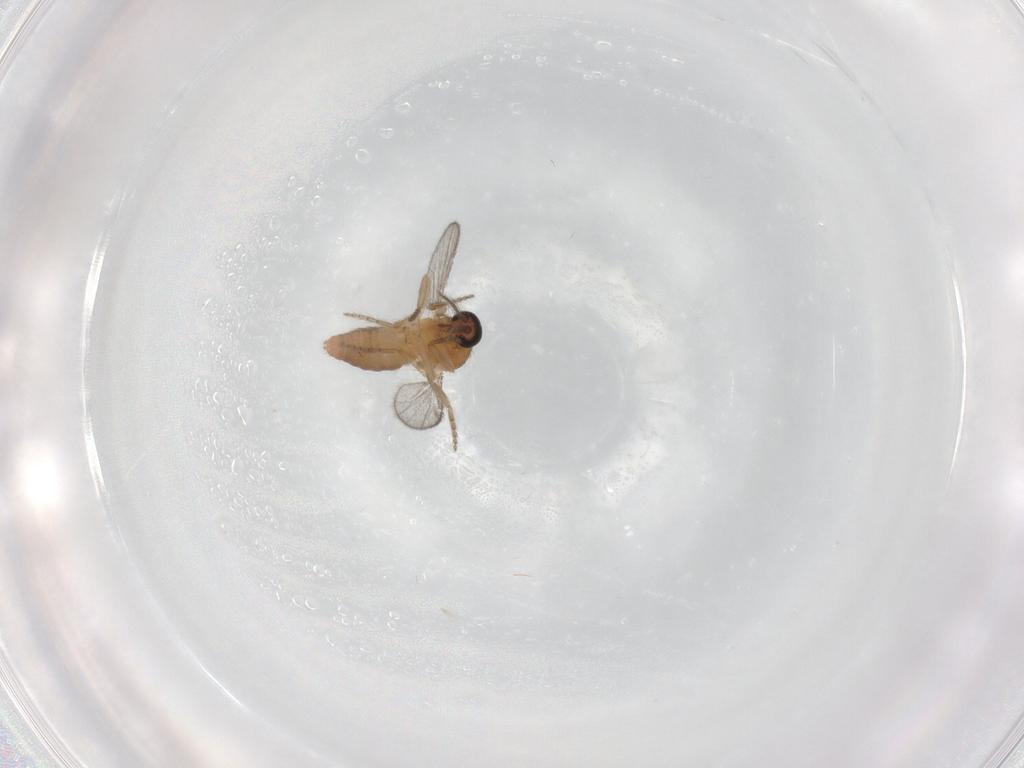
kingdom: Animalia
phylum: Arthropoda
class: Insecta
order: Diptera
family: Ceratopogonidae
